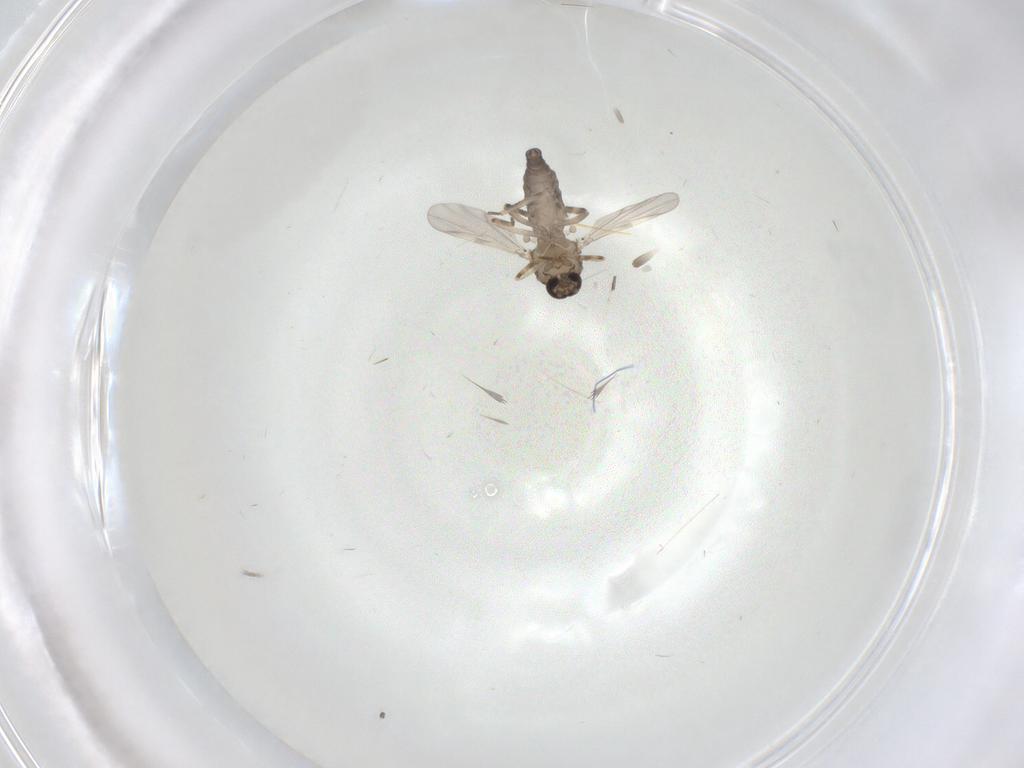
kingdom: Animalia
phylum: Arthropoda
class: Insecta
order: Diptera
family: Ceratopogonidae
